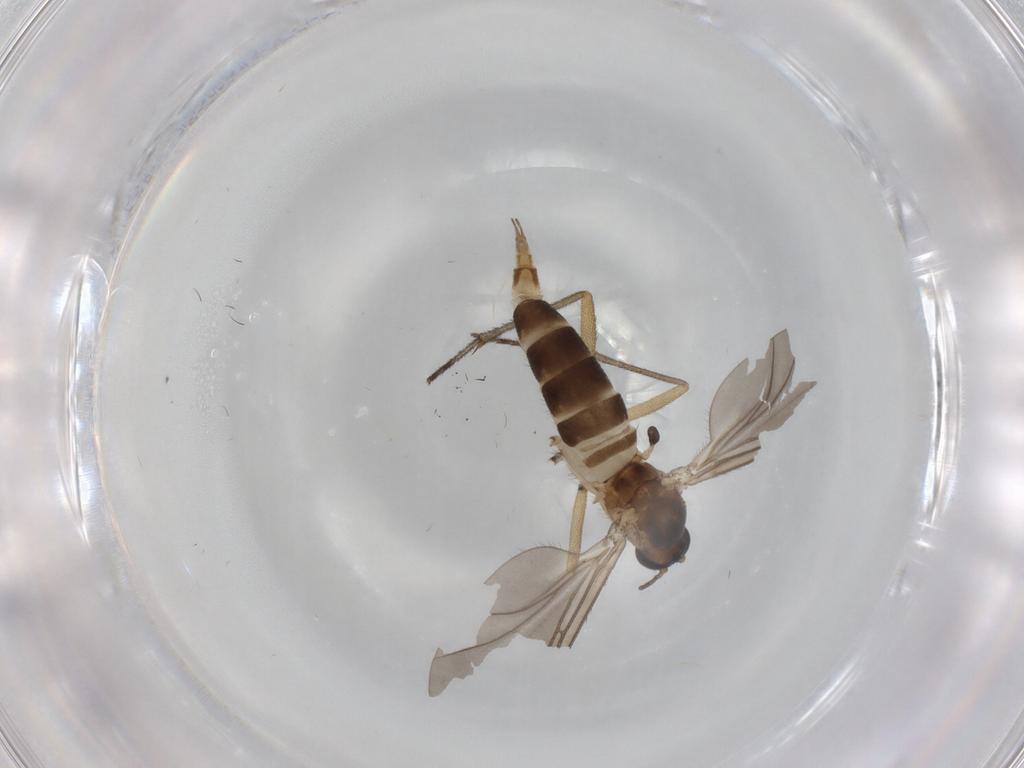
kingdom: Animalia
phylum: Arthropoda
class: Insecta
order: Diptera
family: Sciaridae
